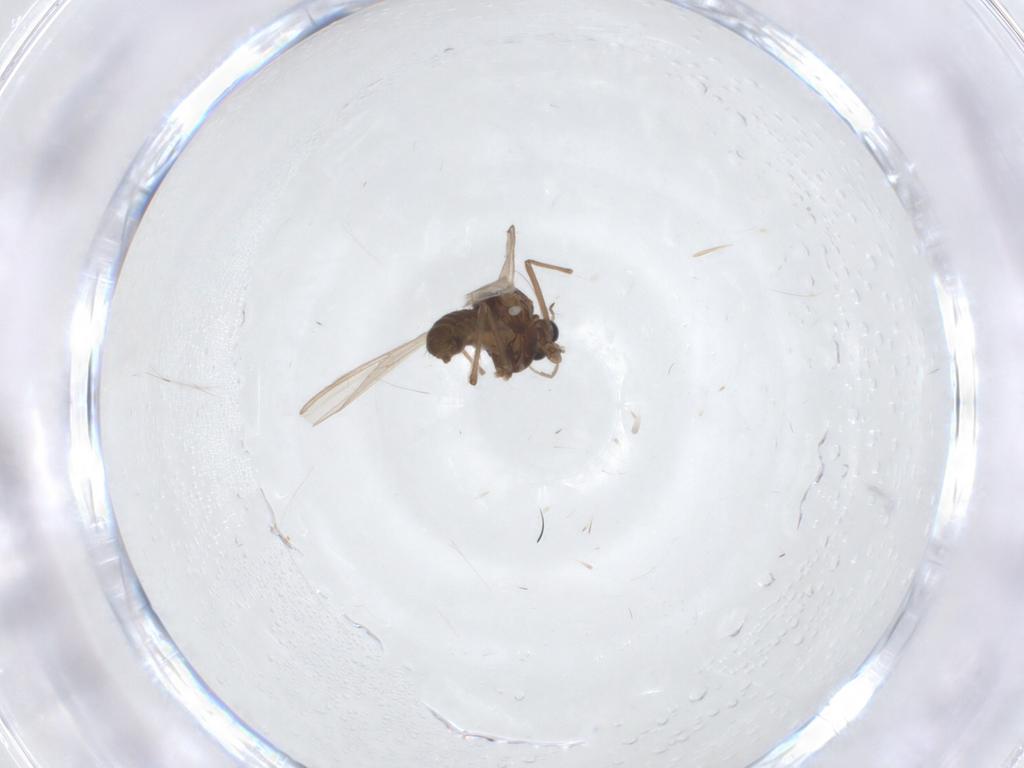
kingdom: Animalia
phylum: Arthropoda
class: Insecta
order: Diptera
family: Chironomidae
